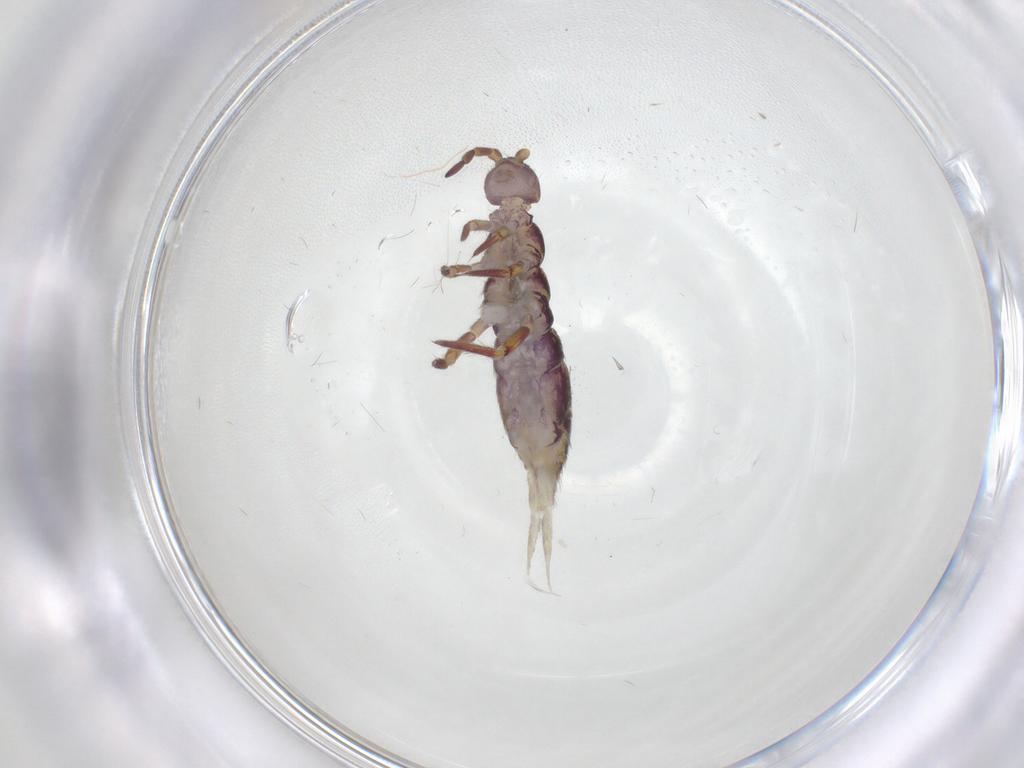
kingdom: Animalia
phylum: Arthropoda
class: Collembola
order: Entomobryomorpha
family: Isotomidae
